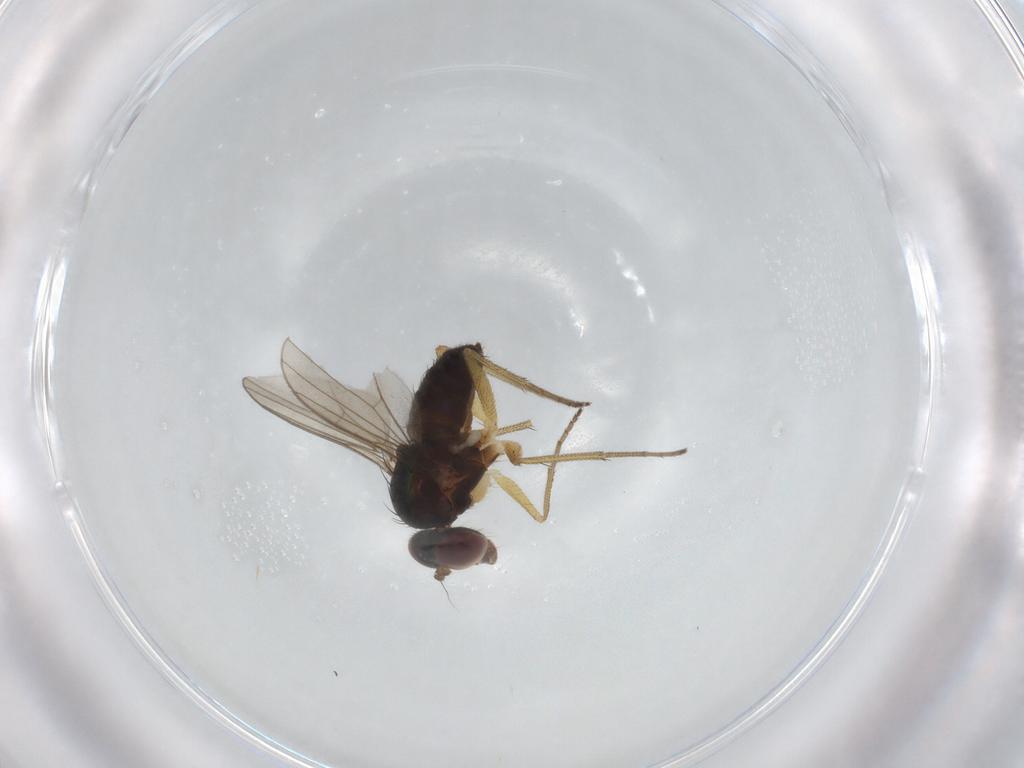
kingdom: Animalia
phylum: Arthropoda
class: Insecta
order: Diptera
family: Dolichopodidae
